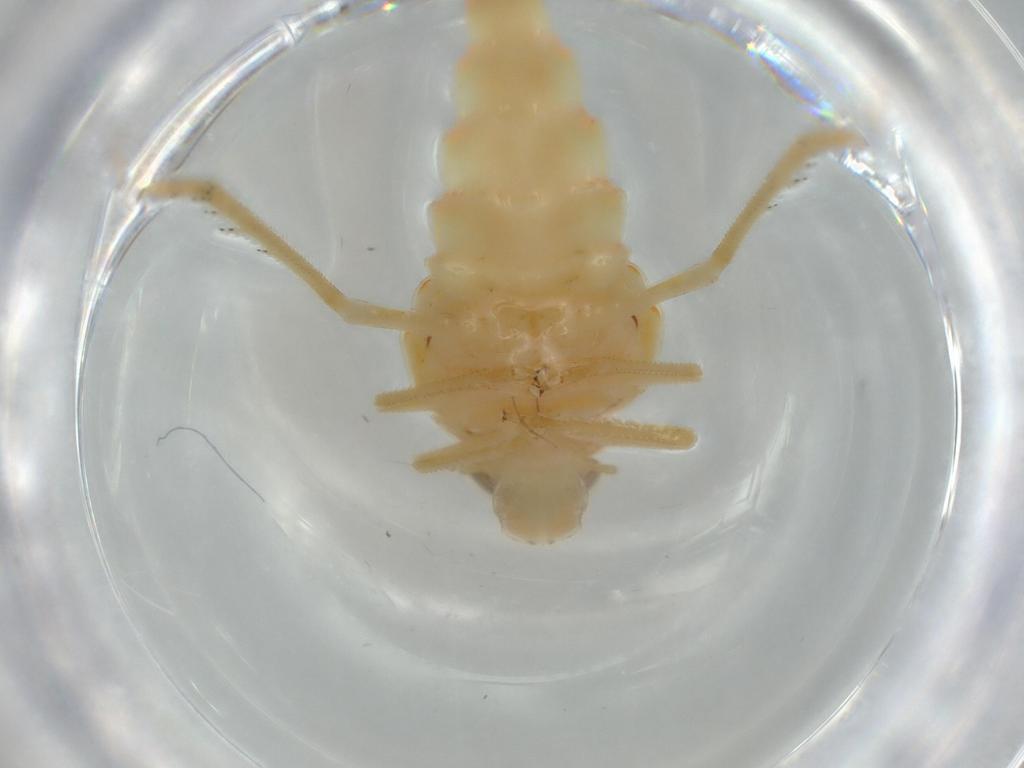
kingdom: Animalia
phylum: Arthropoda
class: Insecta
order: Hemiptera
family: Tropiduchidae
